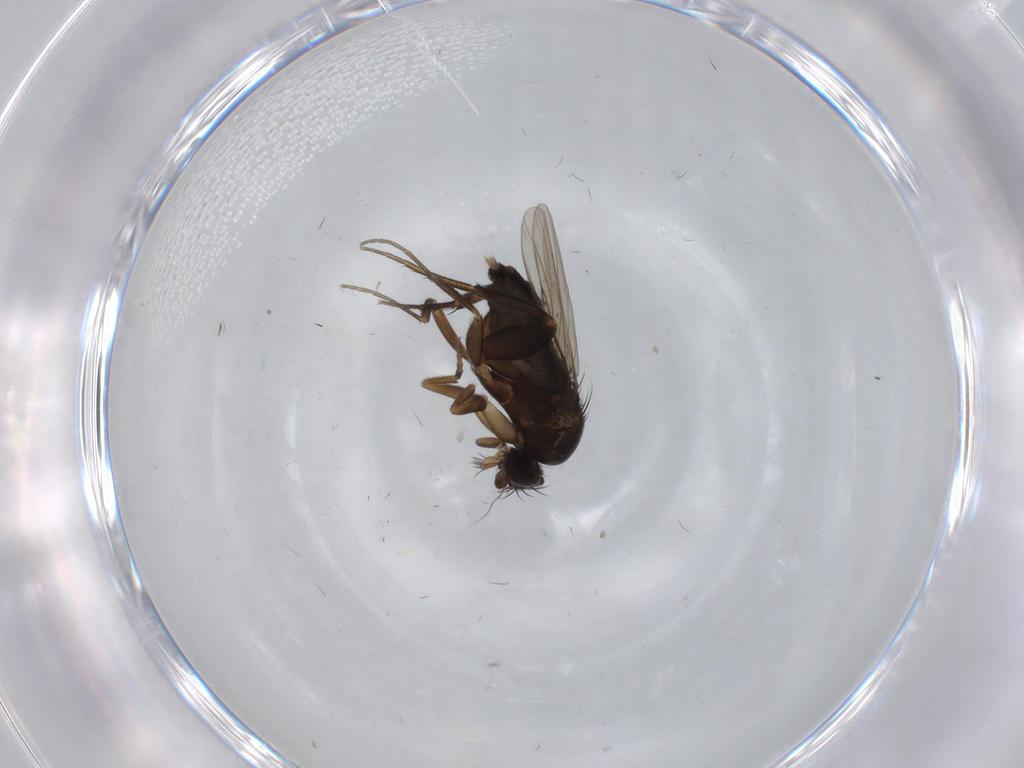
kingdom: Animalia
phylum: Arthropoda
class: Insecta
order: Diptera
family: Phoridae
